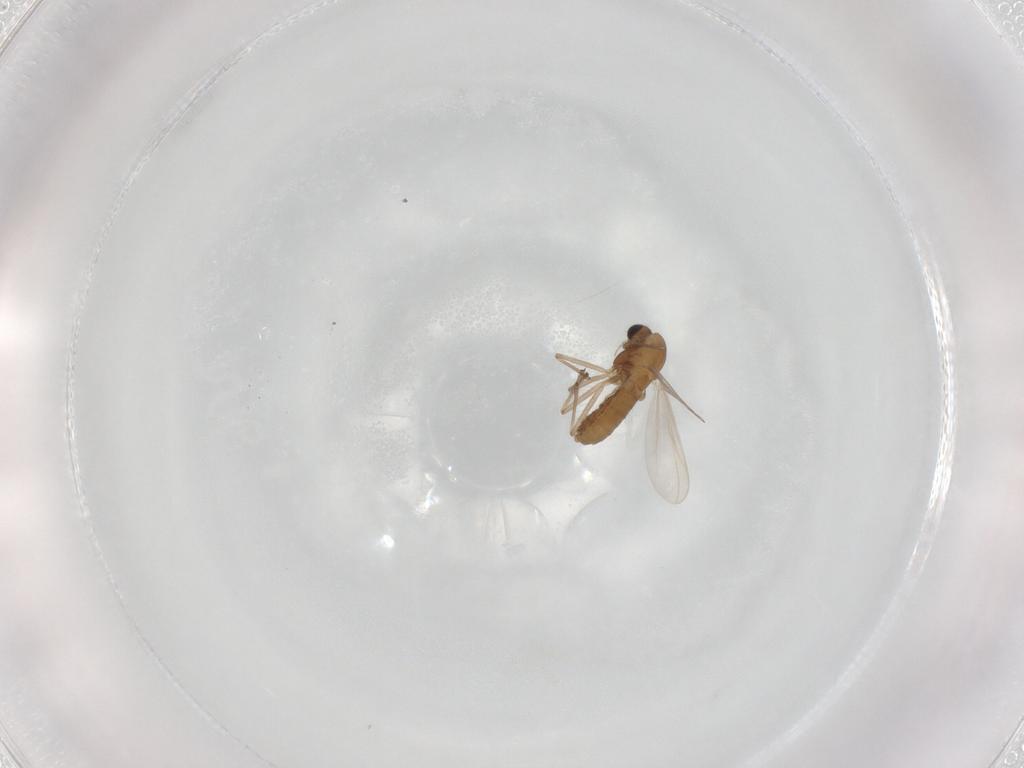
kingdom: Animalia
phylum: Arthropoda
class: Insecta
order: Diptera
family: Chironomidae
